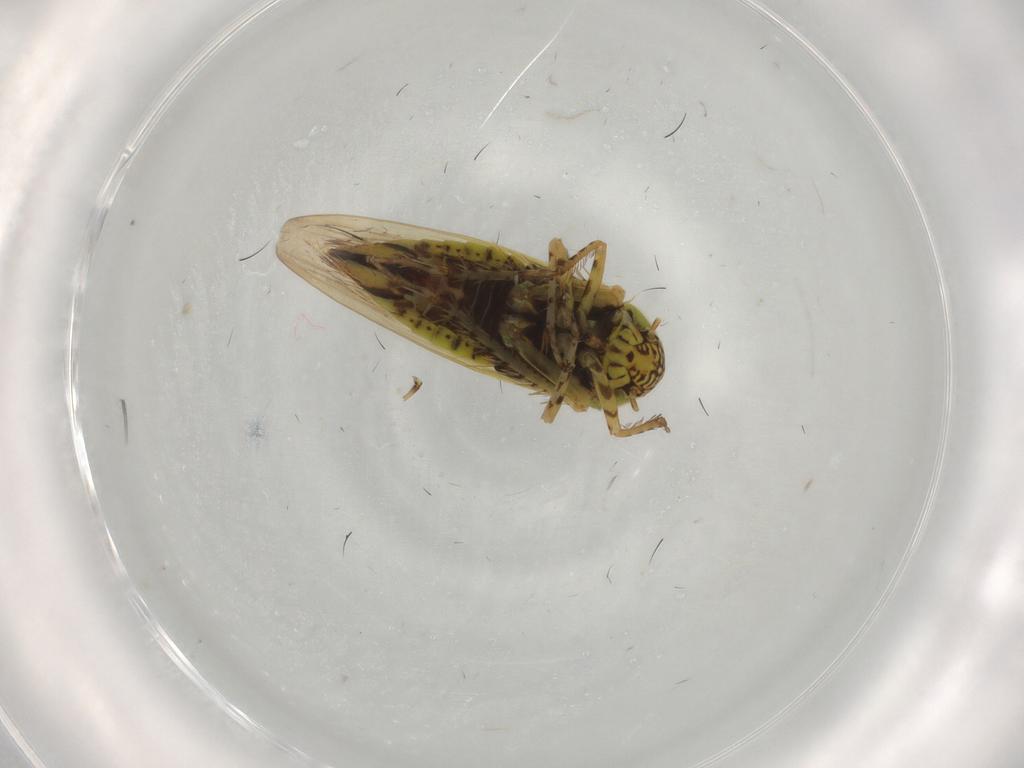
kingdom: Animalia
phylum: Arthropoda
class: Insecta
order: Hemiptera
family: Cicadellidae
